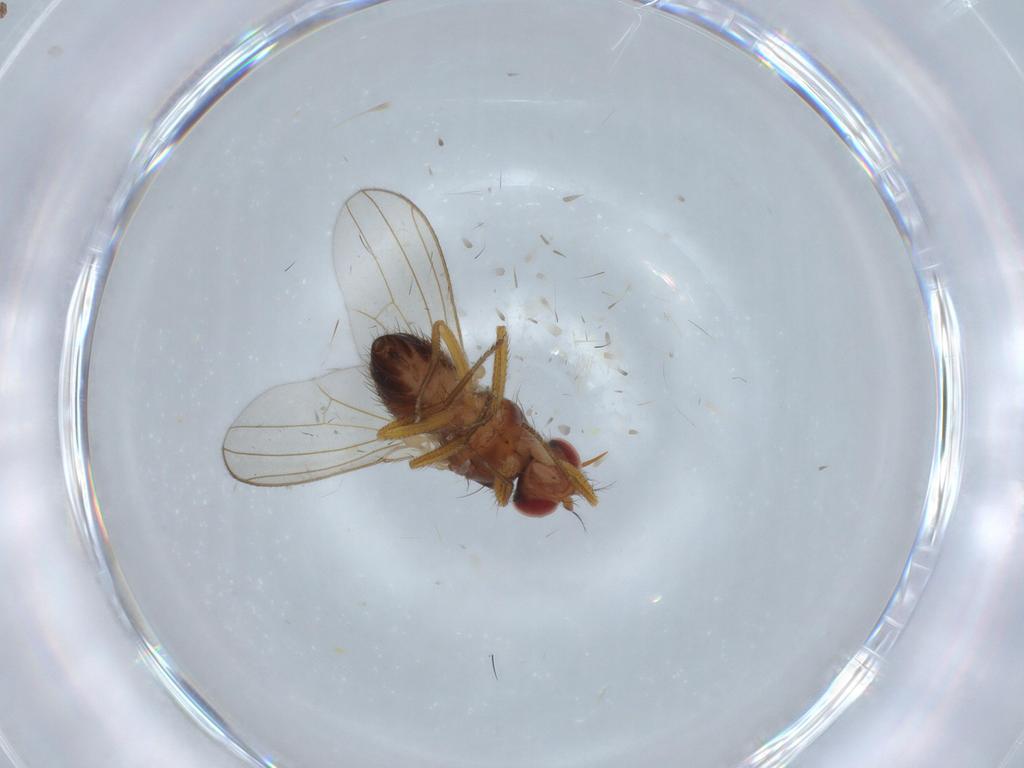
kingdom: Animalia
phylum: Arthropoda
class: Insecta
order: Diptera
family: Drosophilidae
